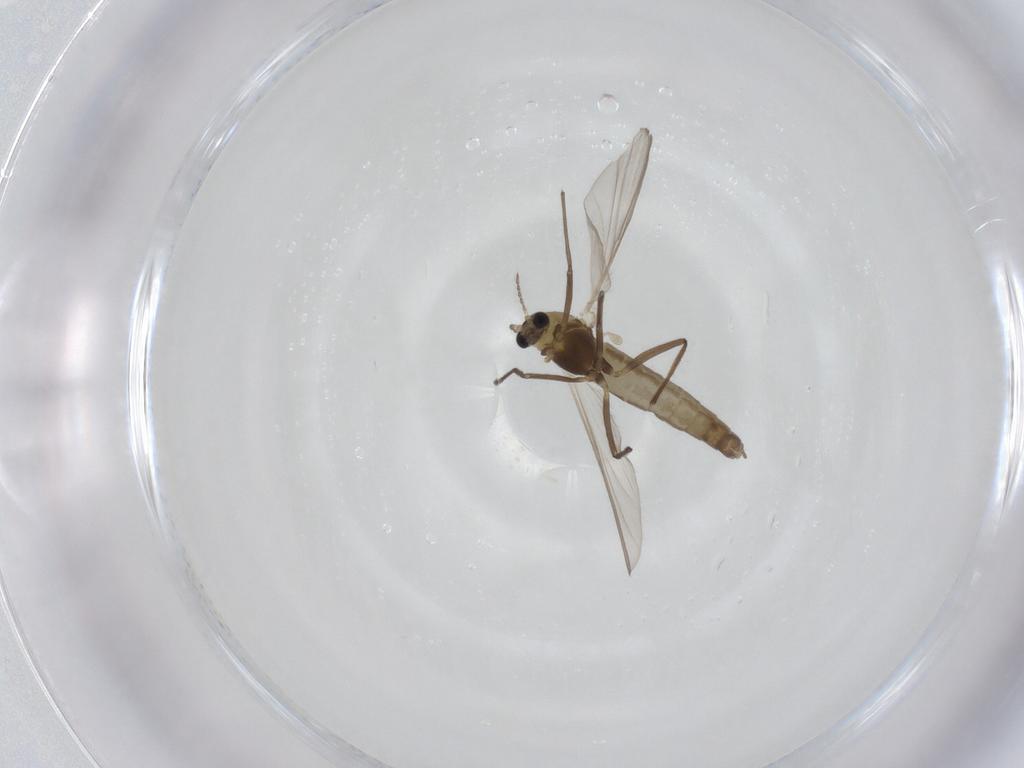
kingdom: Animalia
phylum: Arthropoda
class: Insecta
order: Diptera
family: Chironomidae
